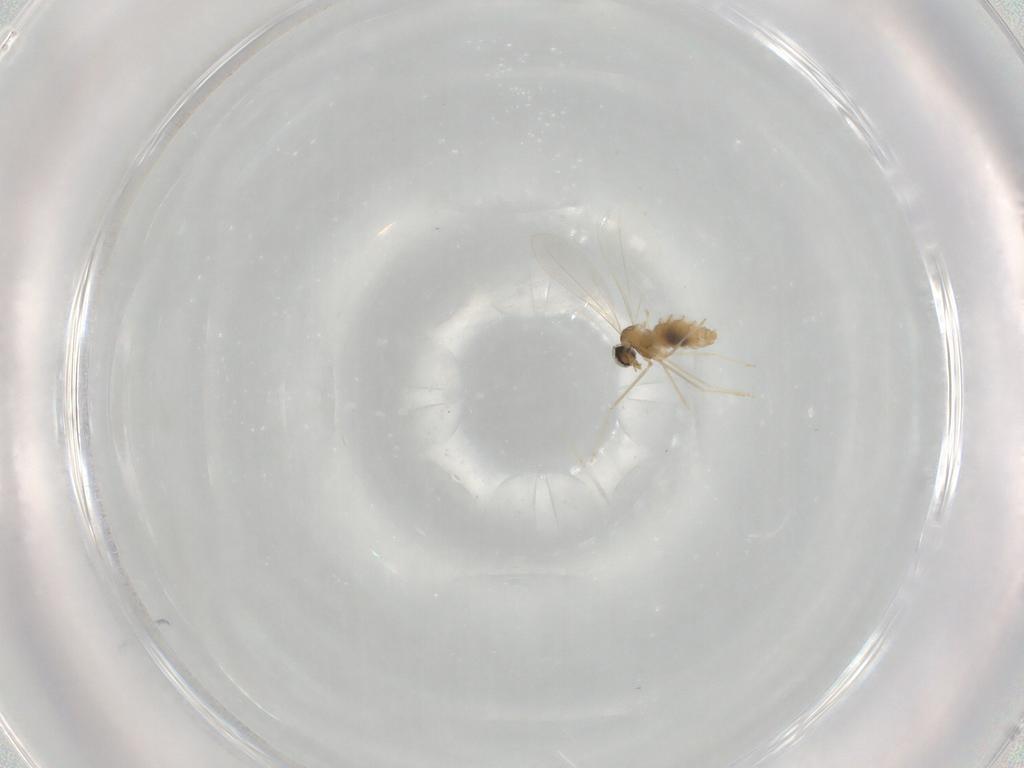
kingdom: Animalia
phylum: Arthropoda
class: Insecta
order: Diptera
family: Cecidomyiidae
